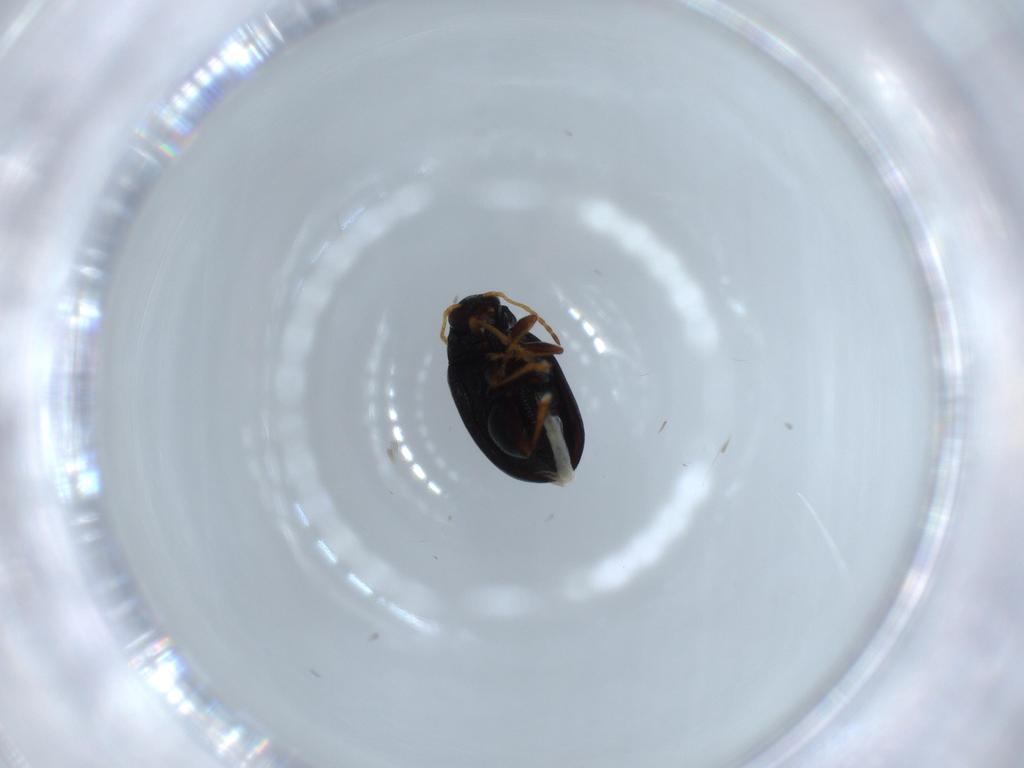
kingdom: Animalia
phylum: Arthropoda
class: Insecta
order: Coleoptera
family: Chrysomelidae
